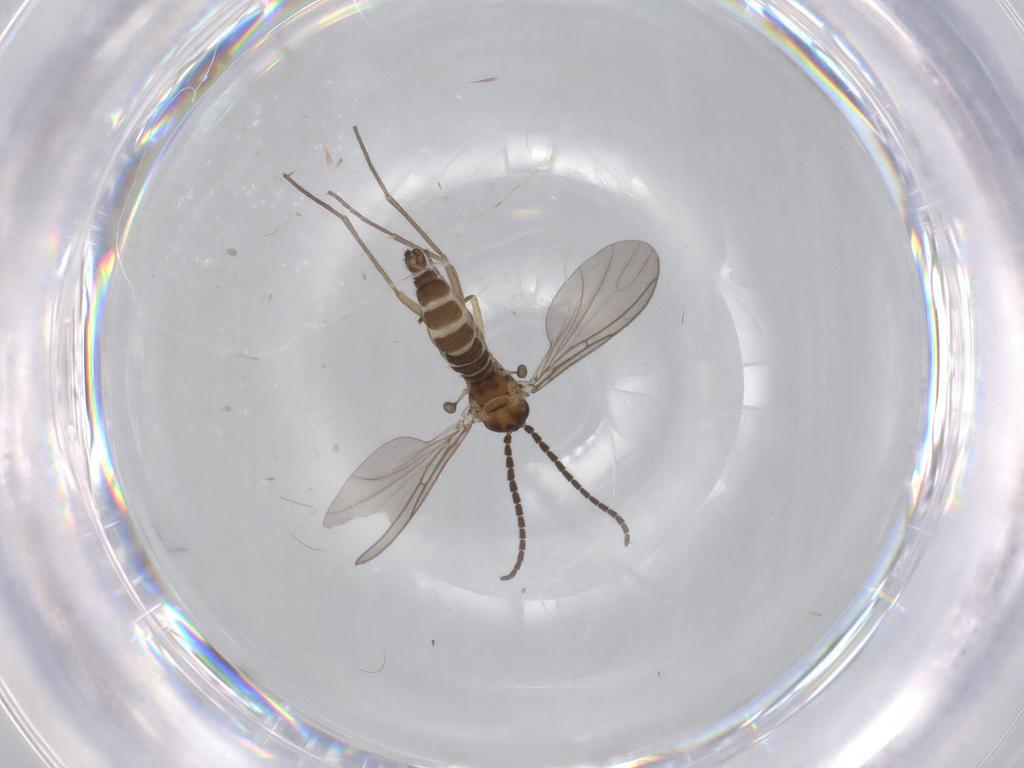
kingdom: Animalia
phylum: Arthropoda
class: Insecta
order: Diptera
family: Sciaridae
